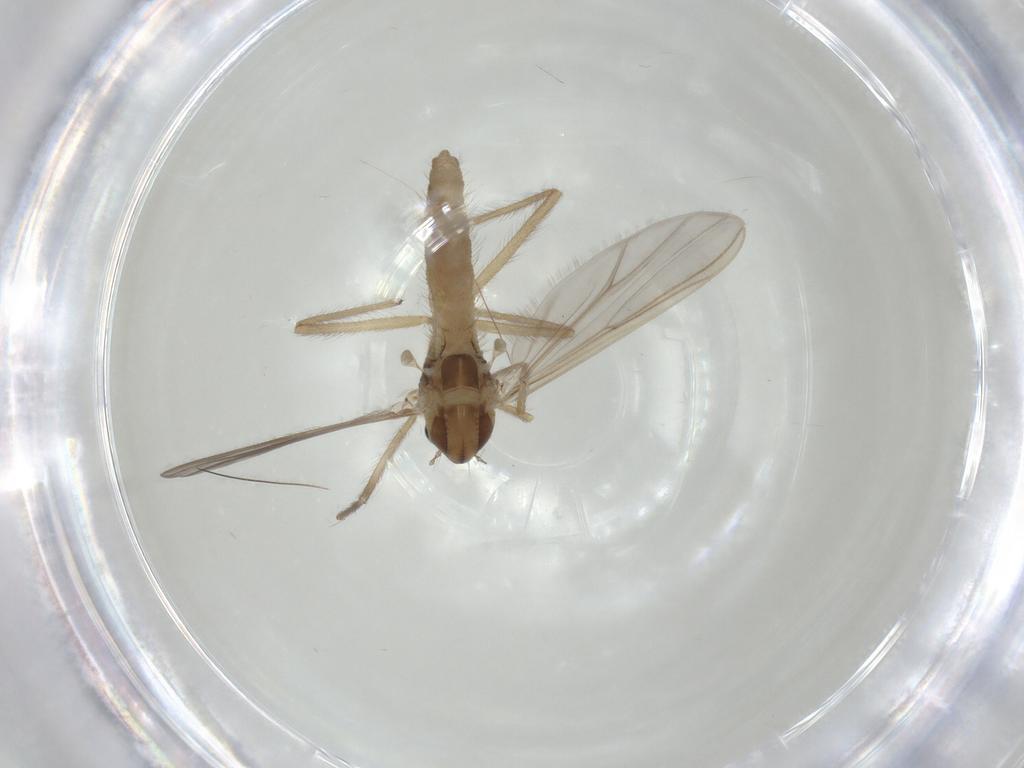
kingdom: Animalia
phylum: Arthropoda
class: Insecta
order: Diptera
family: Chironomidae
